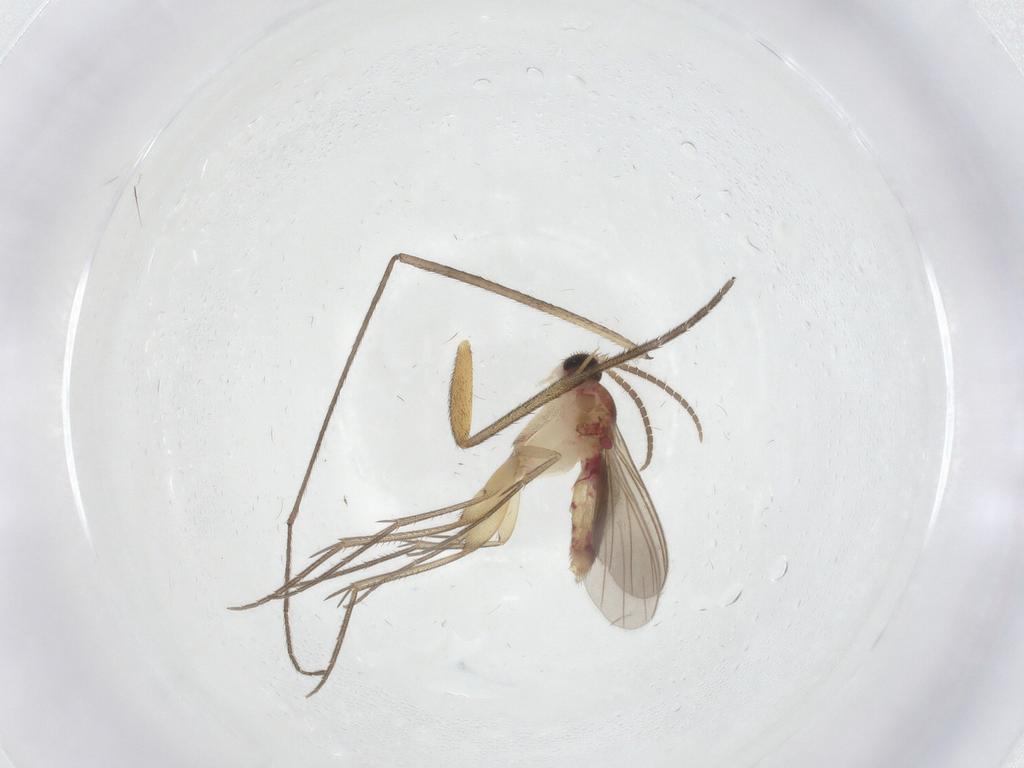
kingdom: Animalia
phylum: Arthropoda
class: Insecta
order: Diptera
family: Mycetophilidae
